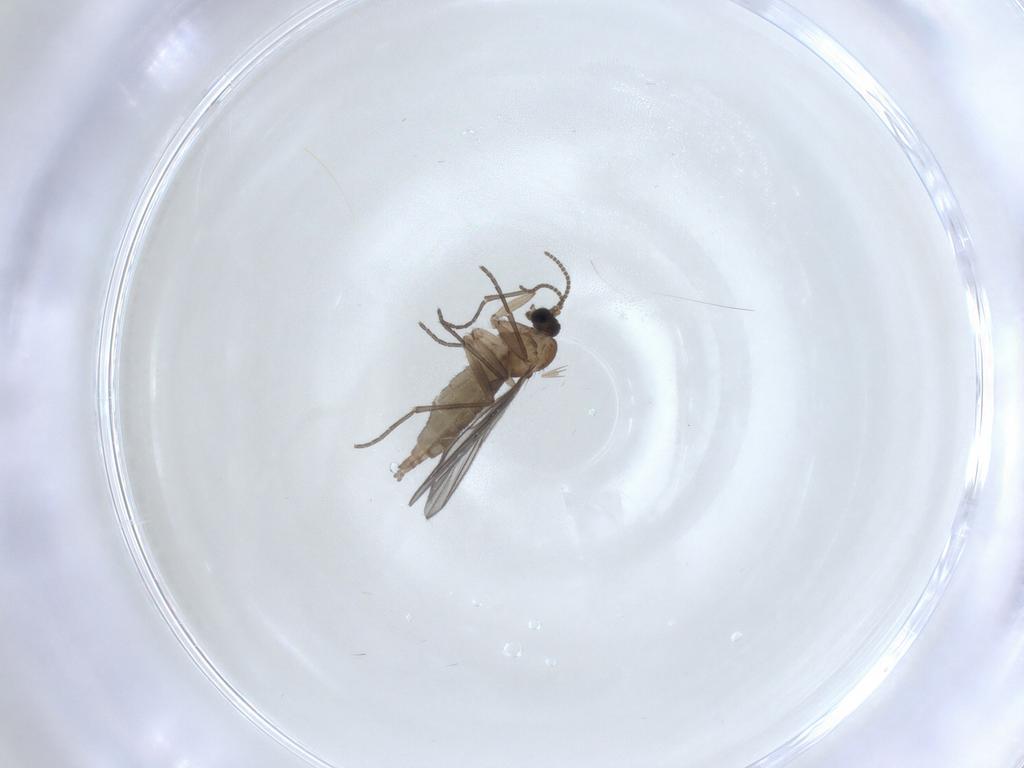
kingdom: Animalia
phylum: Arthropoda
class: Insecta
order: Diptera
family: Sciaridae
